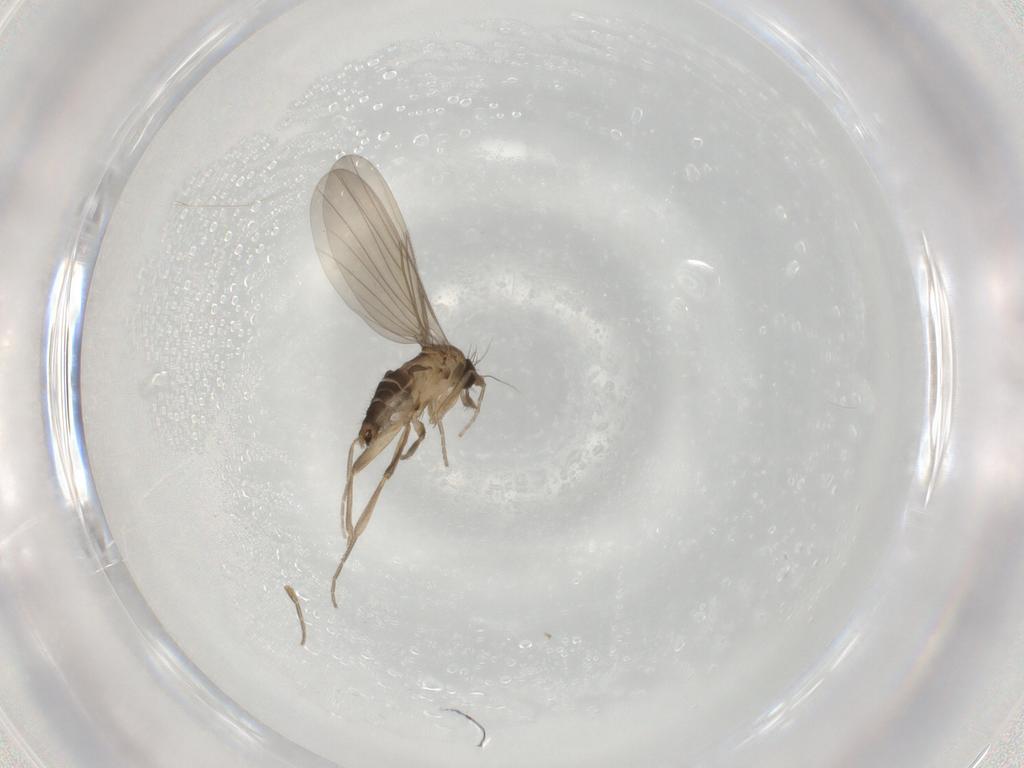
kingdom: Animalia
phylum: Arthropoda
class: Insecta
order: Diptera
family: Phoridae
